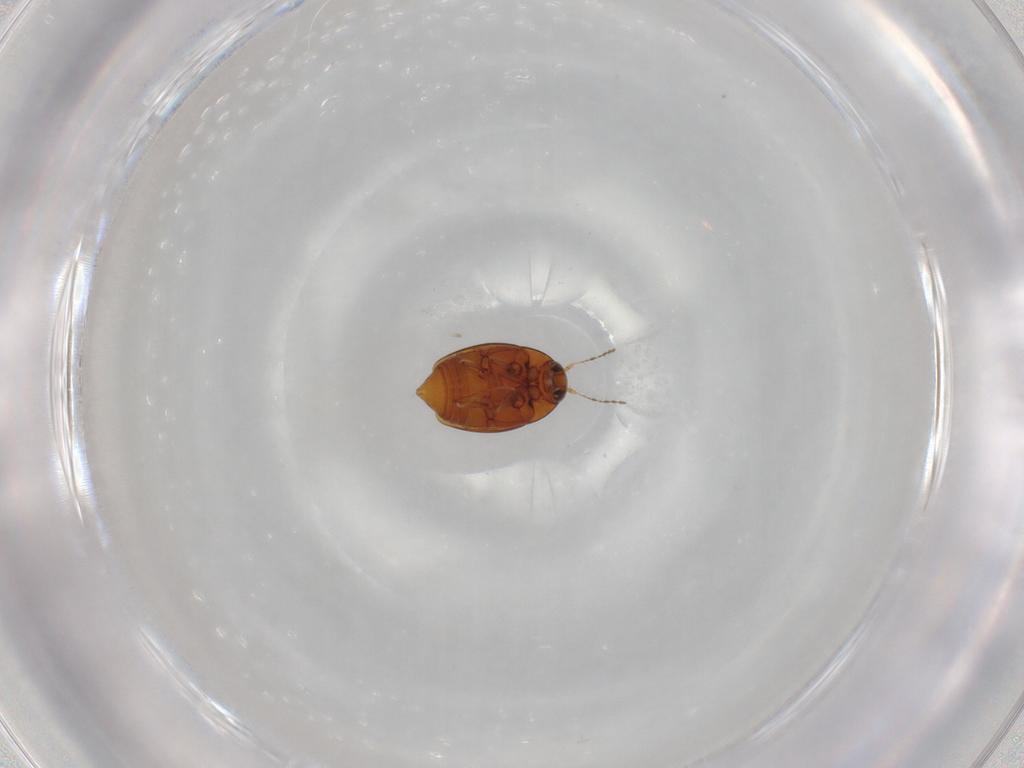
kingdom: Animalia
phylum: Arthropoda
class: Insecta
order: Coleoptera
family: Staphylinidae
